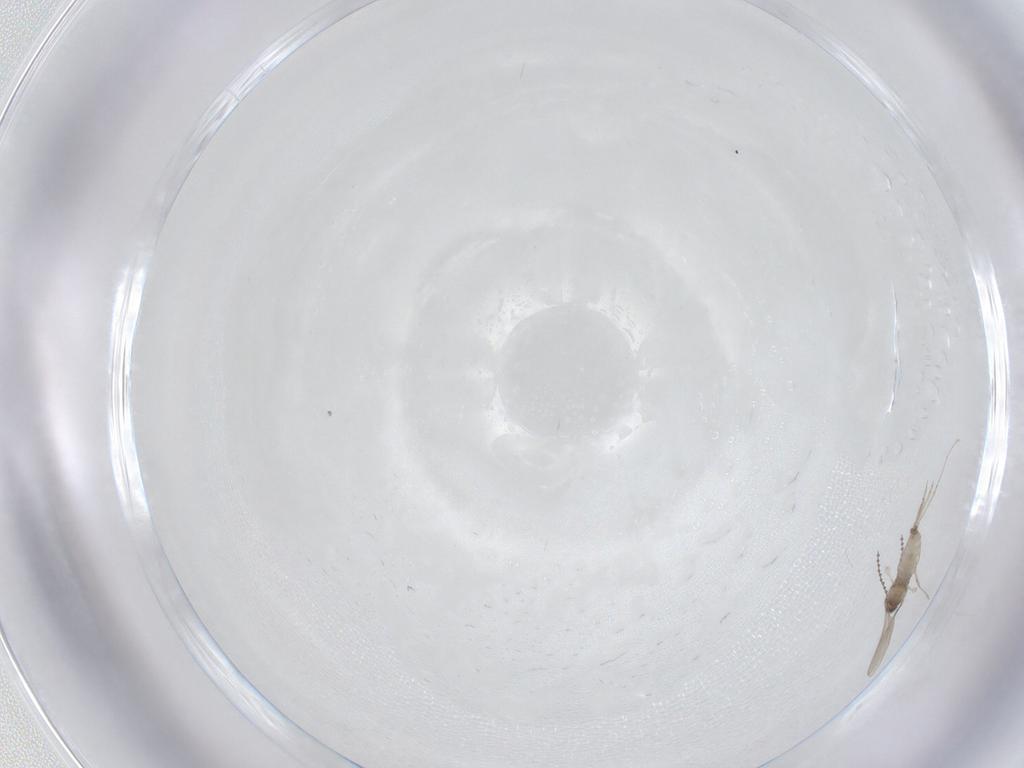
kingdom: Animalia
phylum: Arthropoda
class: Insecta
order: Diptera
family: Cecidomyiidae
